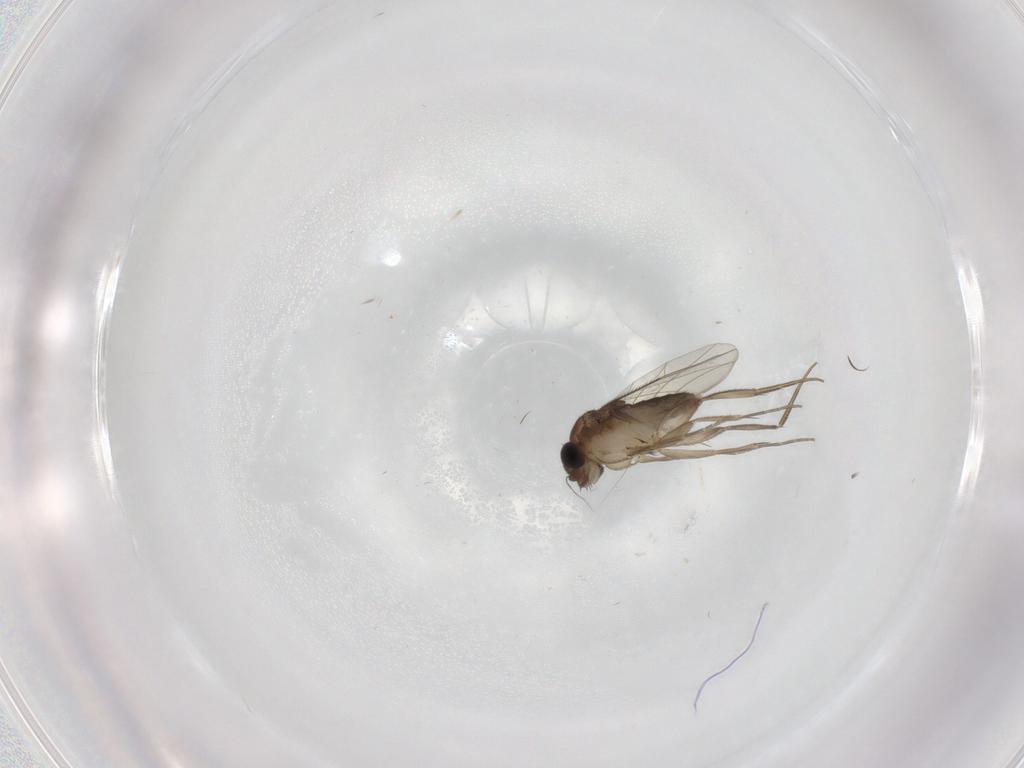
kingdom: Animalia
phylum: Arthropoda
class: Insecta
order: Diptera
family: Phoridae
